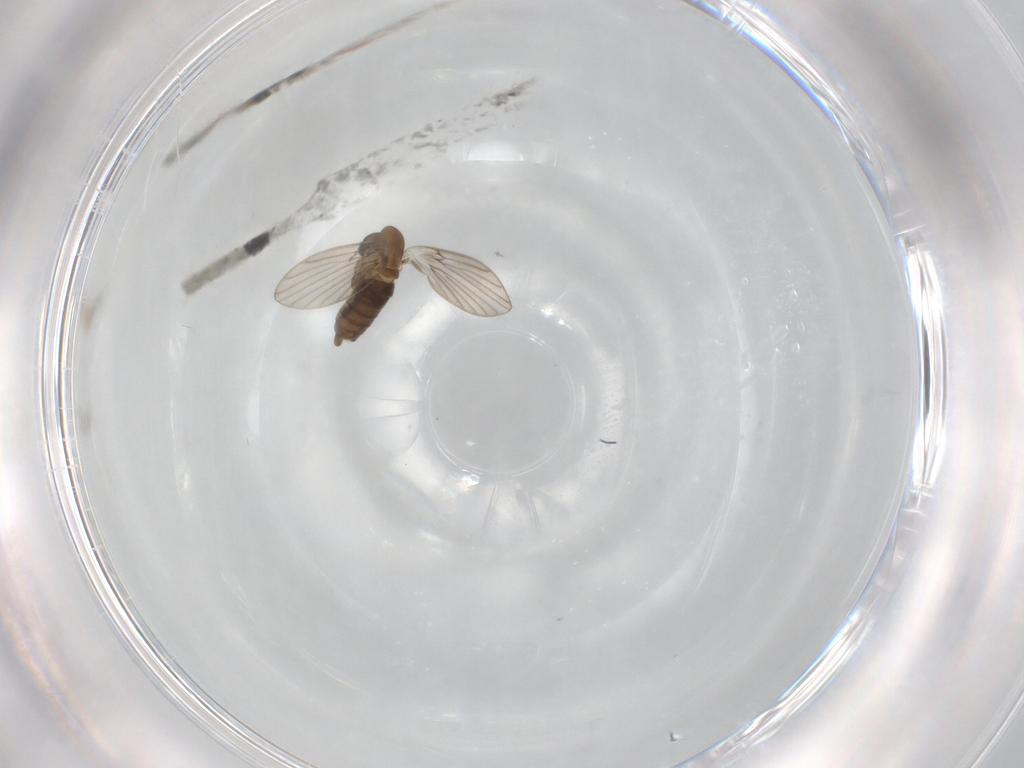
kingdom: Animalia
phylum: Arthropoda
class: Insecta
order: Diptera
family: Dolichopodidae
